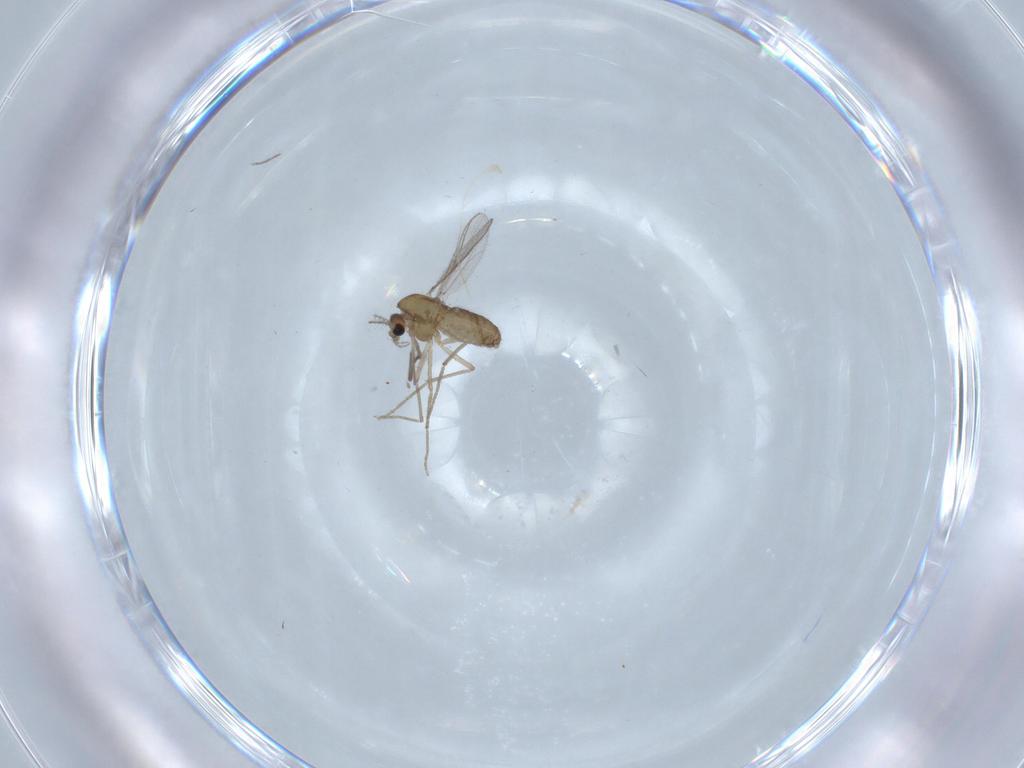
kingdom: Animalia
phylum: Arthropoda
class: Insecta
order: Diptera
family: Chironomidae
